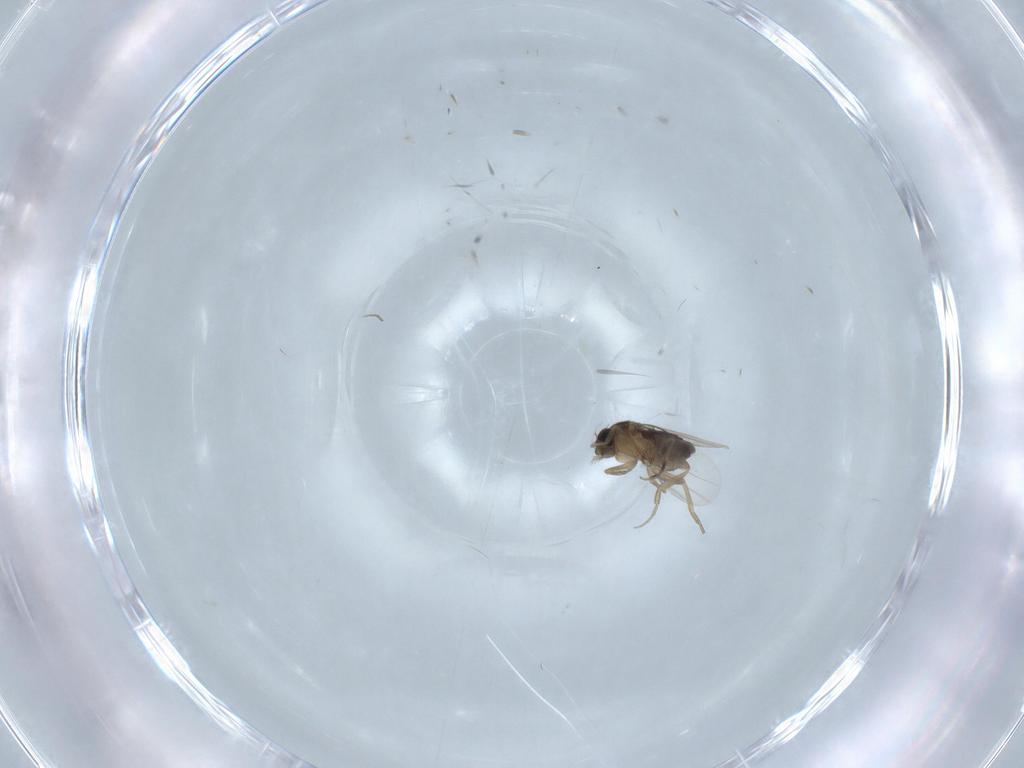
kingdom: Animalia
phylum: Arthropoda
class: Insecta
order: Diptera
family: Phoridae
